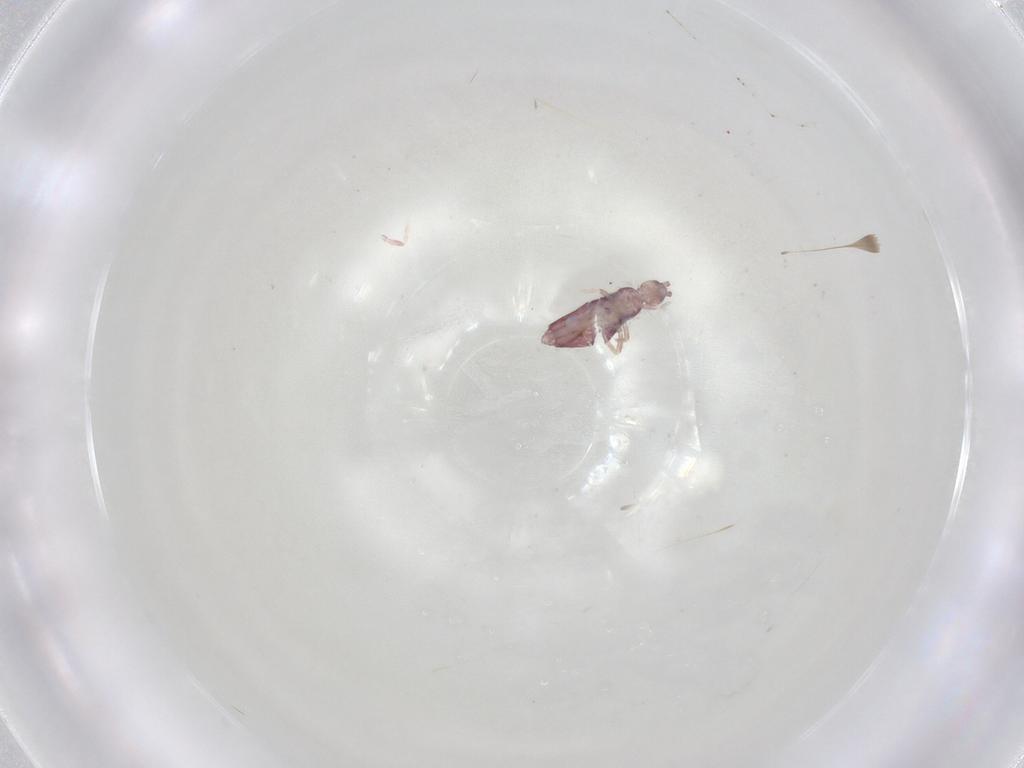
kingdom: Animalia
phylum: Arthropoda
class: Collembola
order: Entomobryomorpha
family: Entomobryidae
